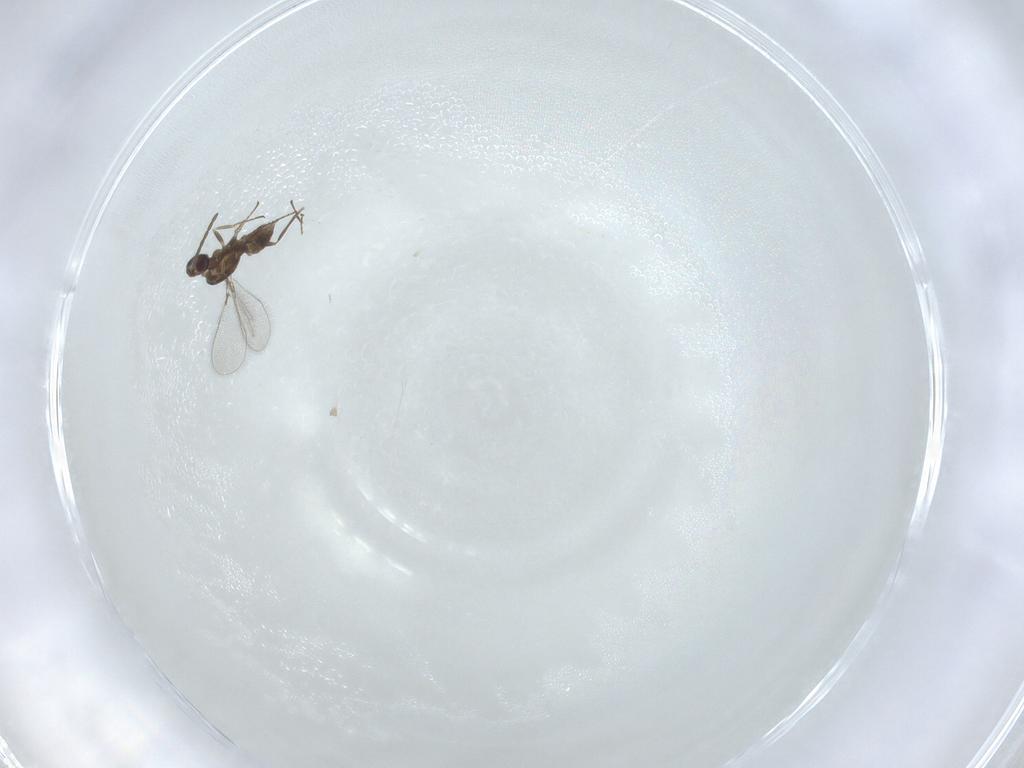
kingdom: Animalia
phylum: Arthropoda
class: Insecta
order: Hymenoptera
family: Mymaridae
